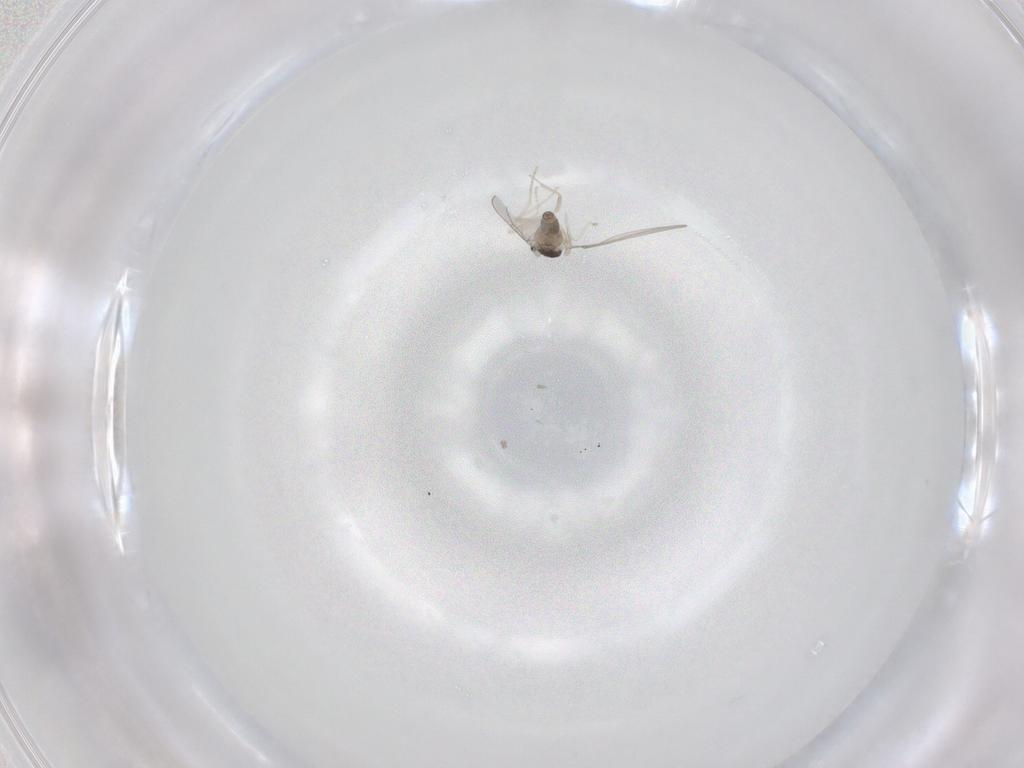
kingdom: Animalia
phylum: Arthropoda
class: Insecta
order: Diptera
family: Cecidomyiidae
